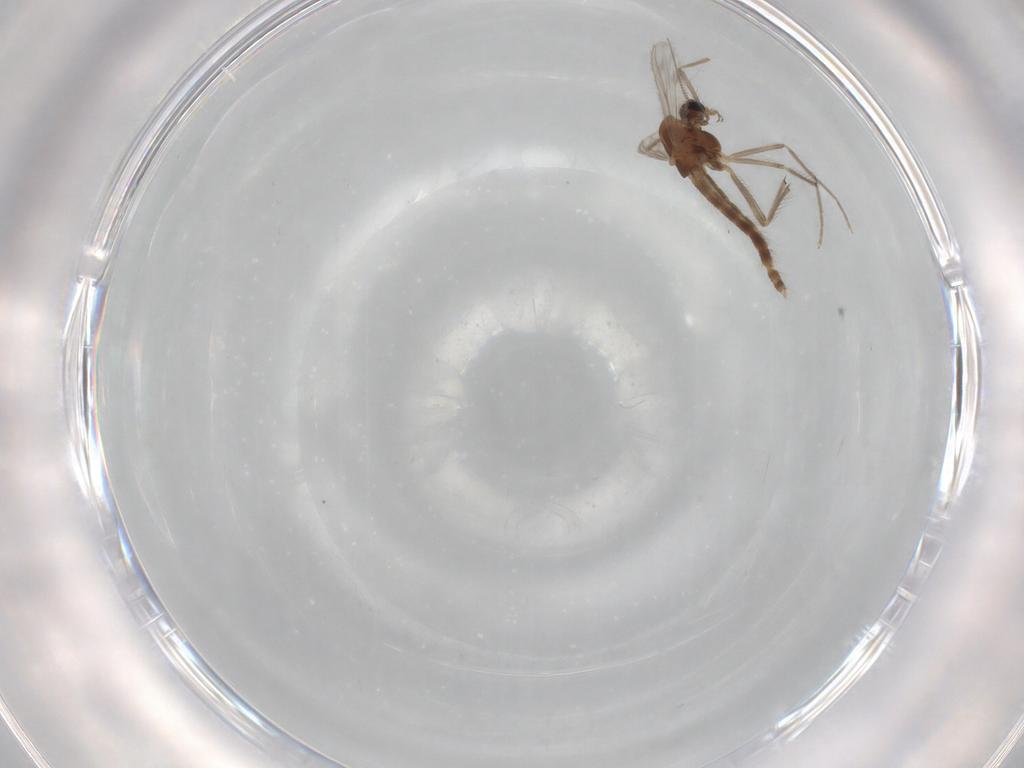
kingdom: Animalia
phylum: Arthropoda
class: Insecta
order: Diptera
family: Chironomidae
